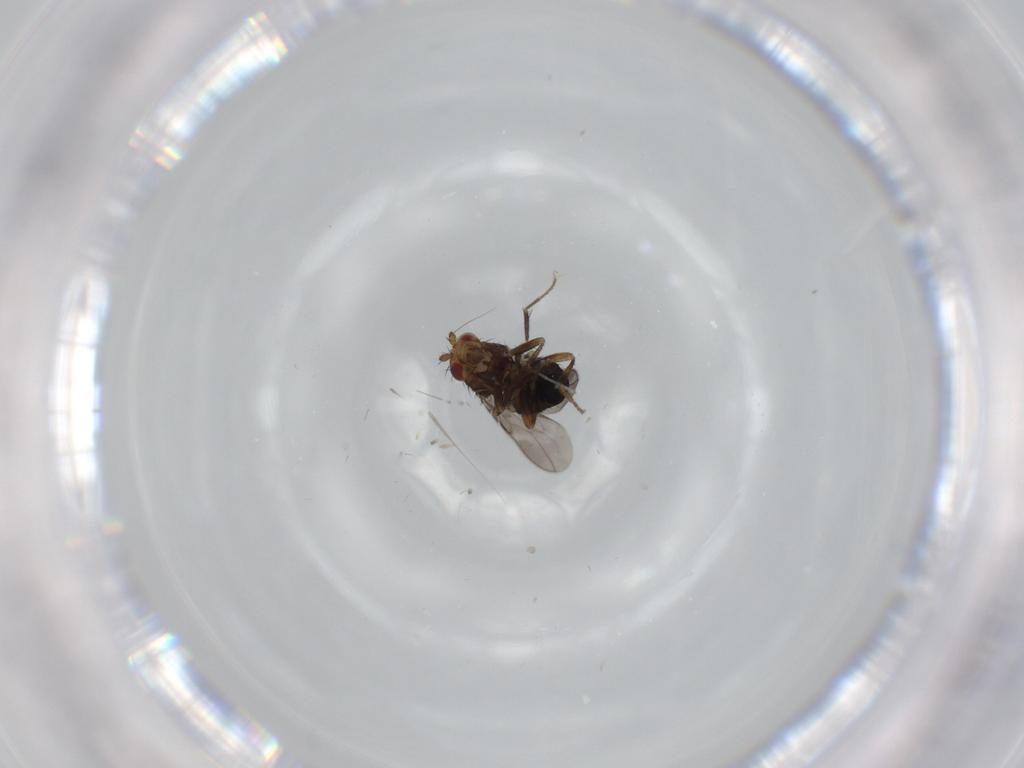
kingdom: Animalia
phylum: Arthropoda
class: Insecta
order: Diptera
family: Cecidomyiidae
